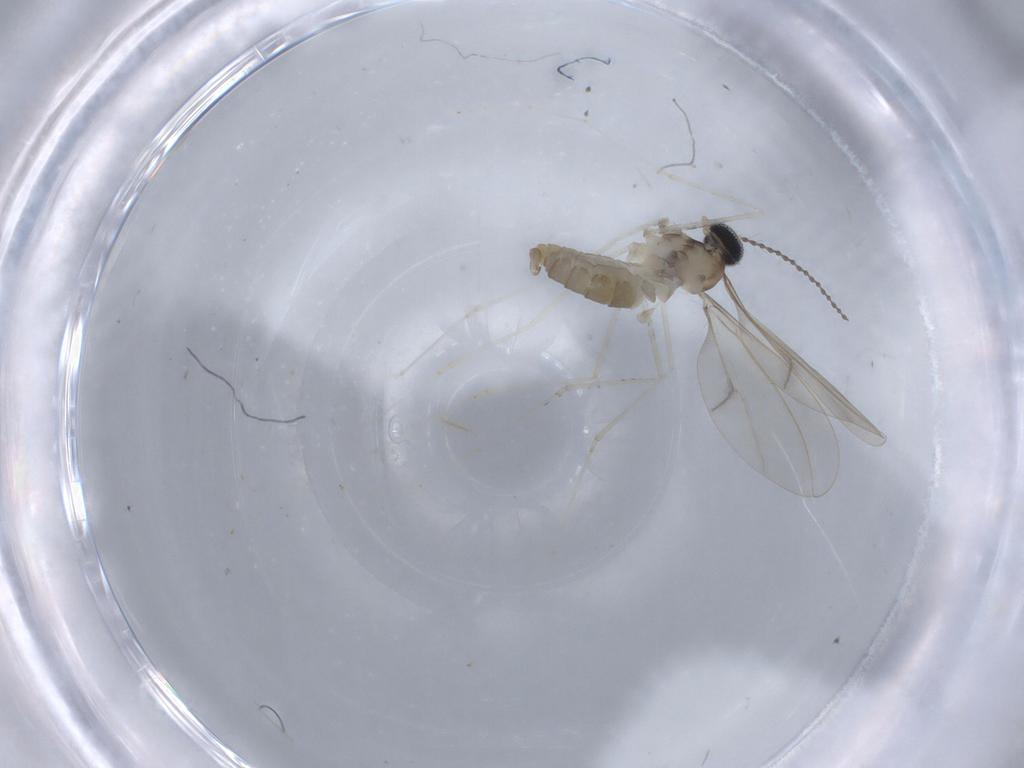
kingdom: Animalia
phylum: Arthropoda
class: Insecta
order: Diptera
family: Cecidomyiidae
